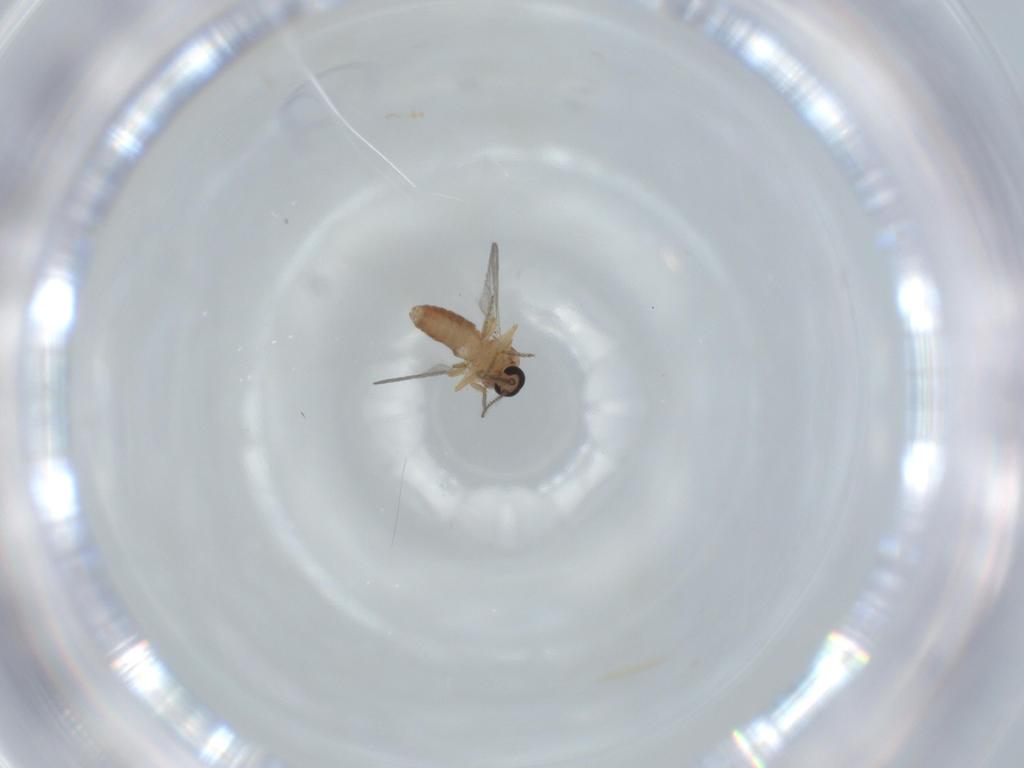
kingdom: Animalia
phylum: Arthropoda
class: Insecta
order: Diptera
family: Ceratopogonidae
